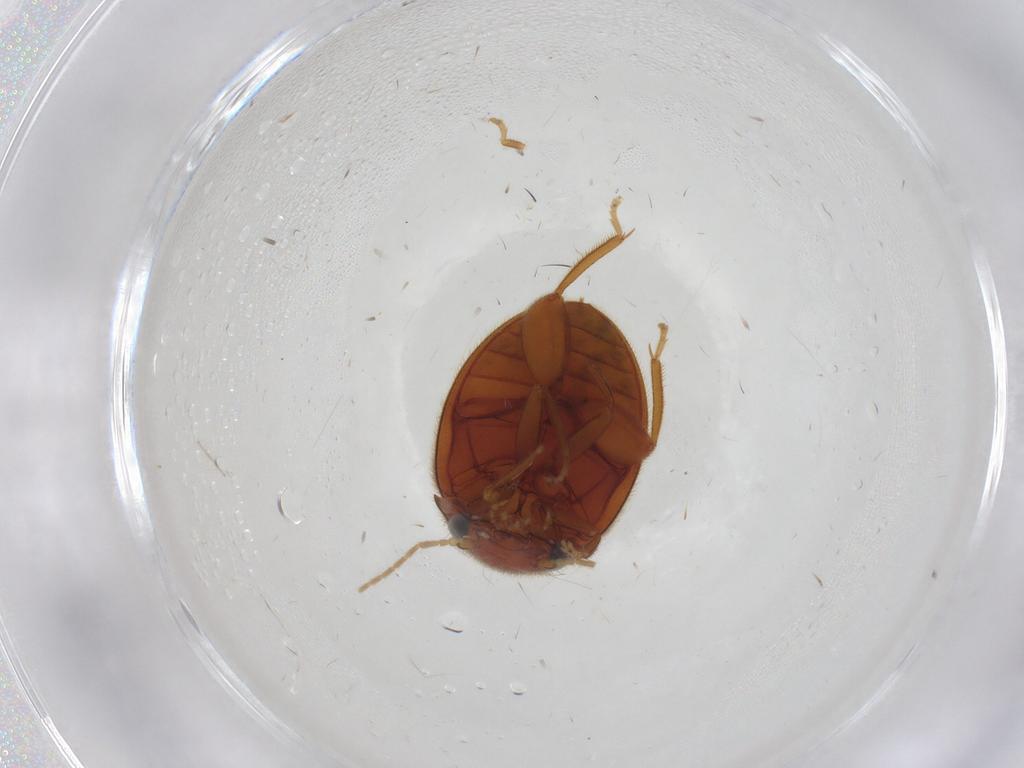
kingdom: Animalia
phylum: Arthropoda
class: Insecta
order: Coleoptera
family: Scirtidae
